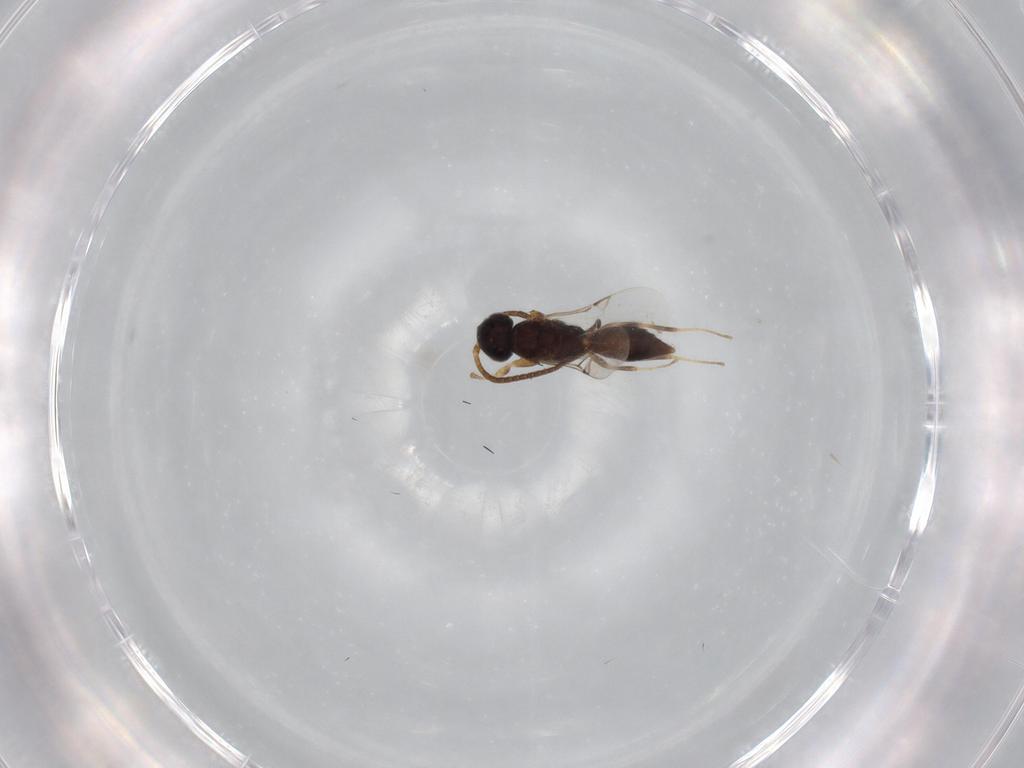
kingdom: Animalia
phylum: Arthropoda
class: Insecta
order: Hymenoptera
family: Sclerogibbidae
